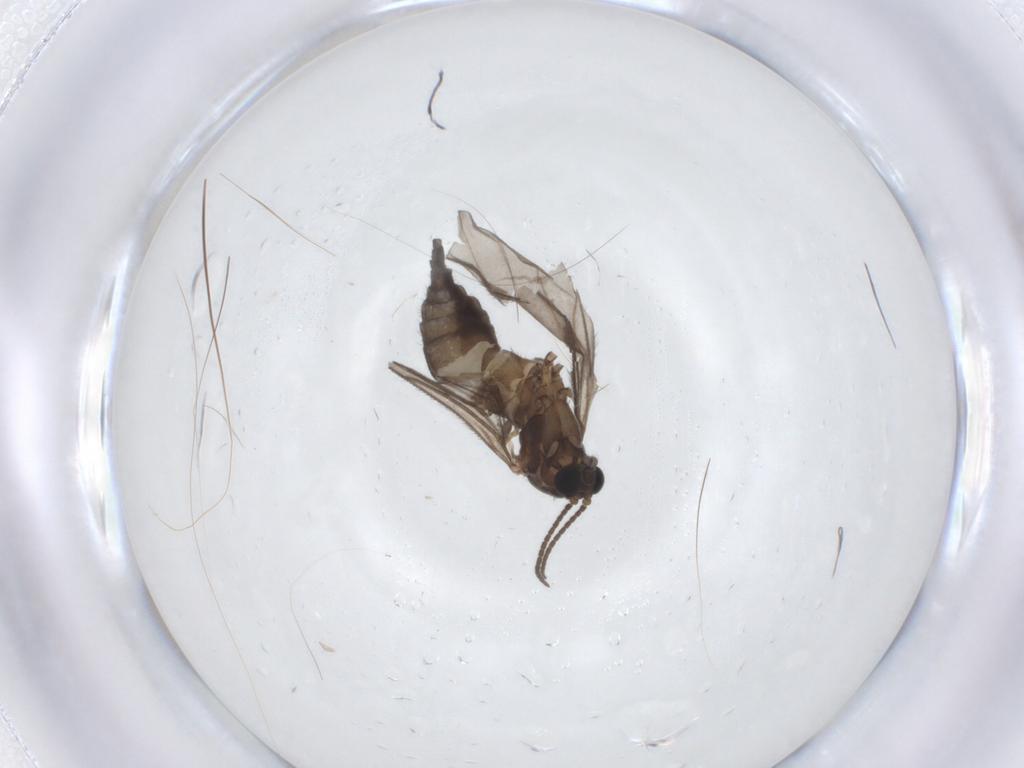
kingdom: Animalia
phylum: Arthropoda
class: Insecta
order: Diptera
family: Sciaridae
